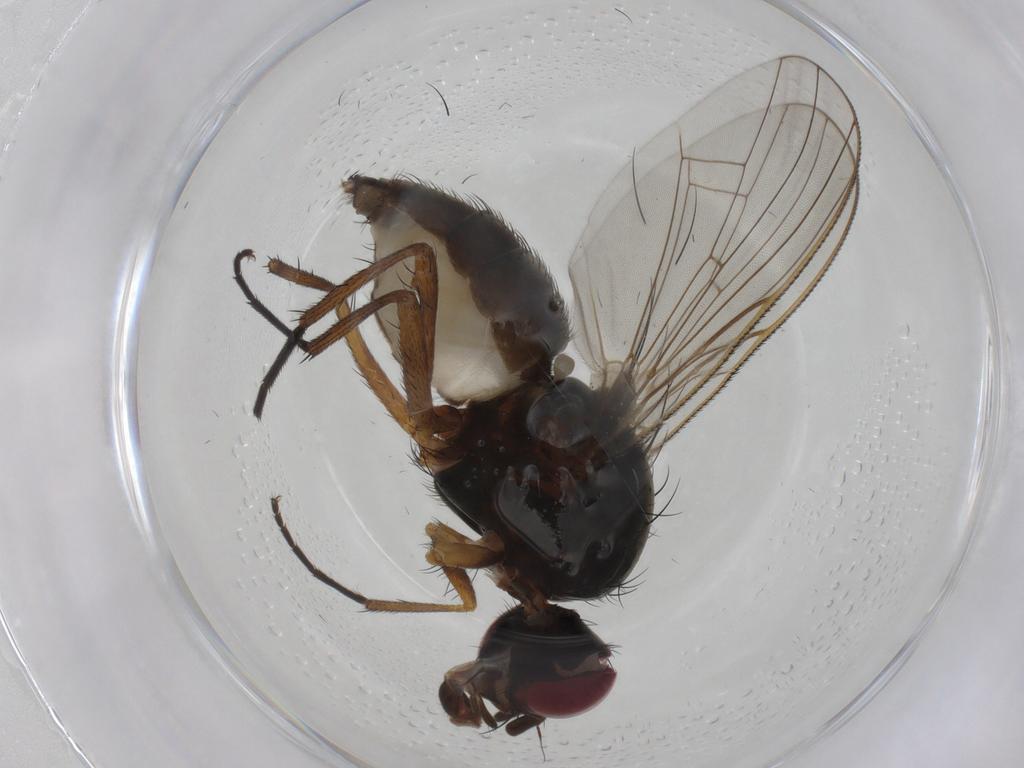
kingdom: Animalia
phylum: Arthropoda
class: Insecta
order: Diptera
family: Anthomyiidae
